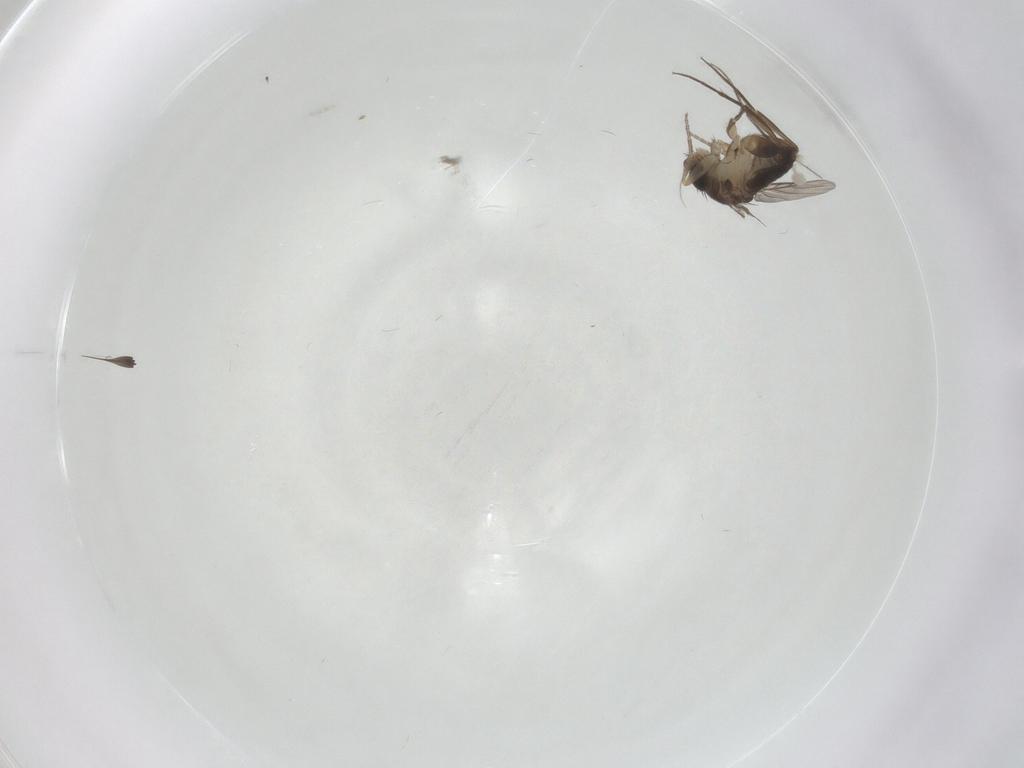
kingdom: Animalia
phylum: Arthropoda
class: Insecta
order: Diptera
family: Phoridae
